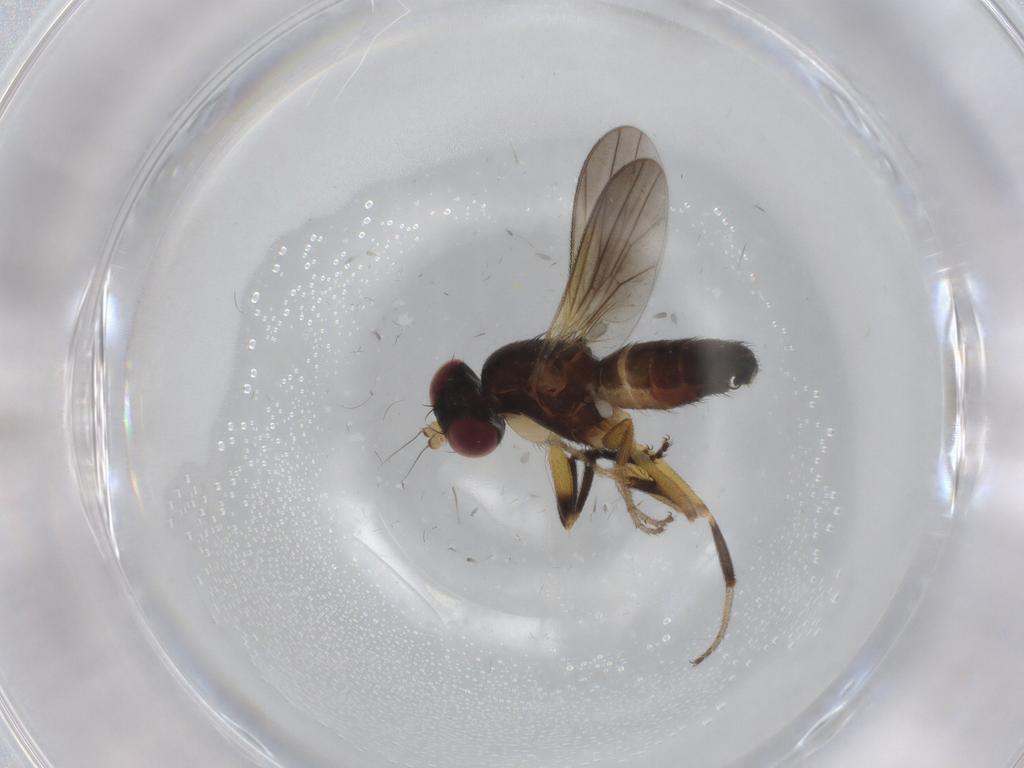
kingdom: Animalia
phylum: Arthropoda
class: Insecta
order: Diptera
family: Clusiidae
